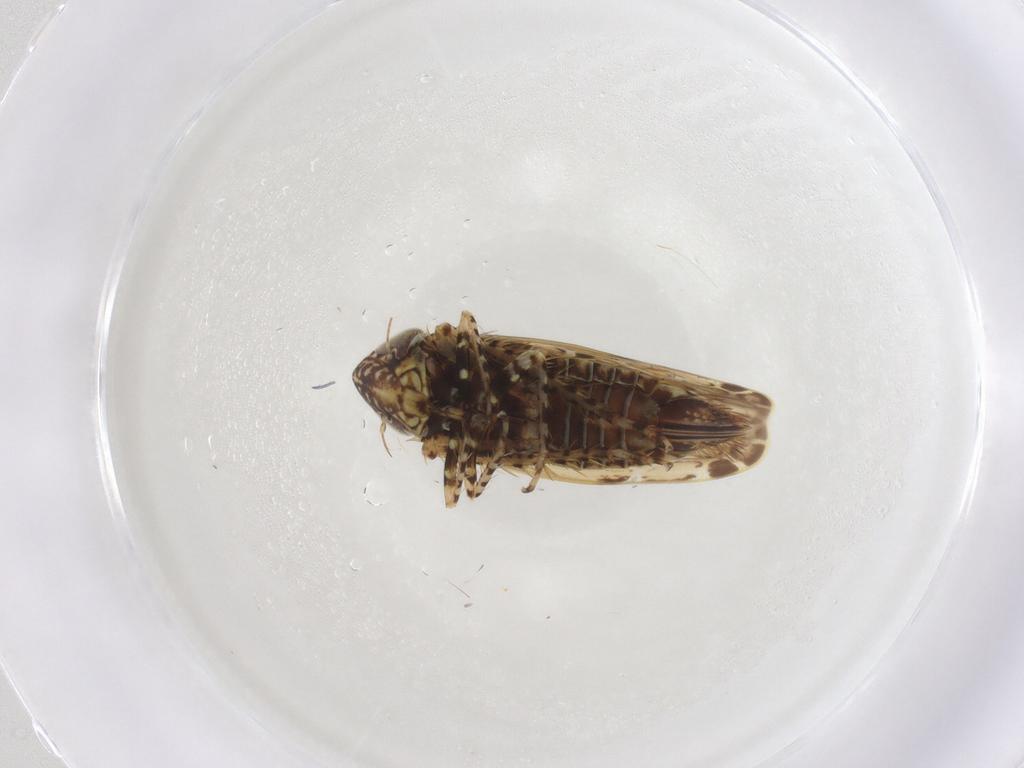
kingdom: Animalia
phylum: Arthropoda
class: Insecta
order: Hemiptera
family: Cicadellidae
